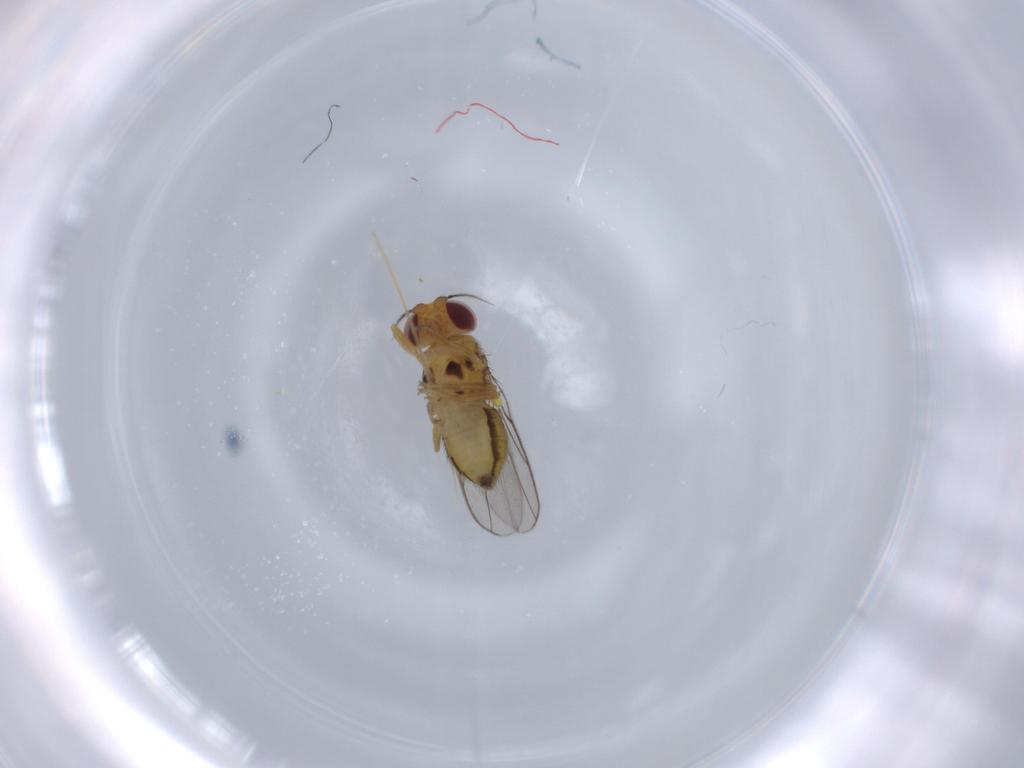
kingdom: Animalia
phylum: Arthropoda
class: Insecta
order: Diptera
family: Chloropidae
